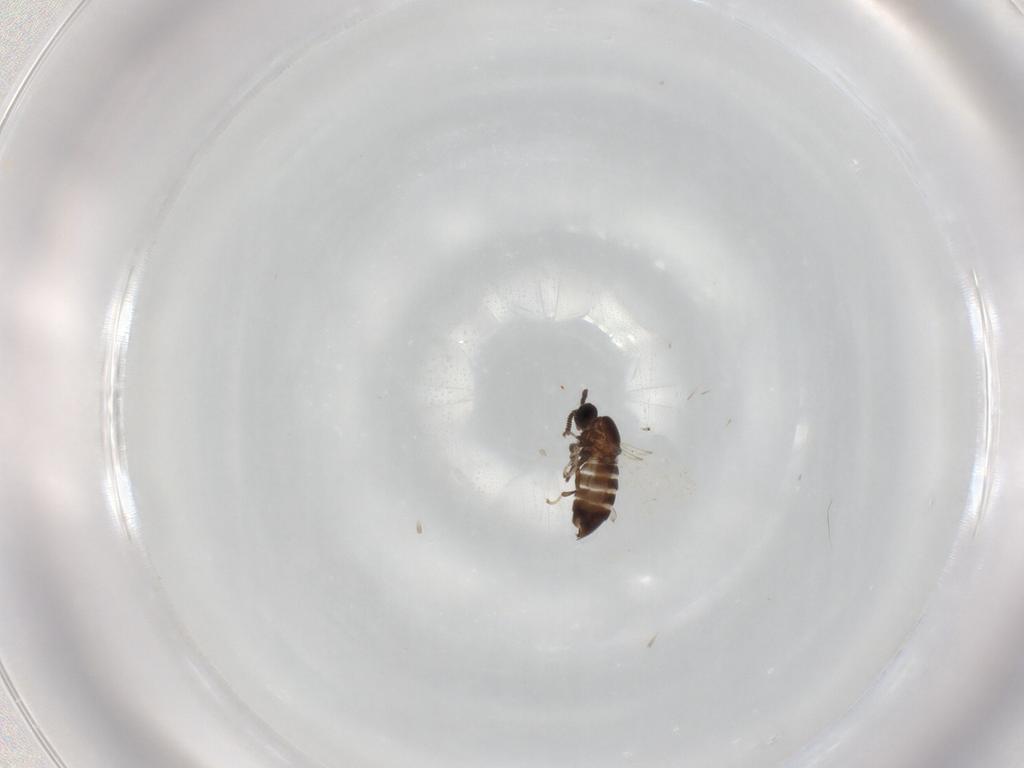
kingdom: Animalia
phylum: Arthropoda
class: Insecta
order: Diptera
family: Scatopsidae
